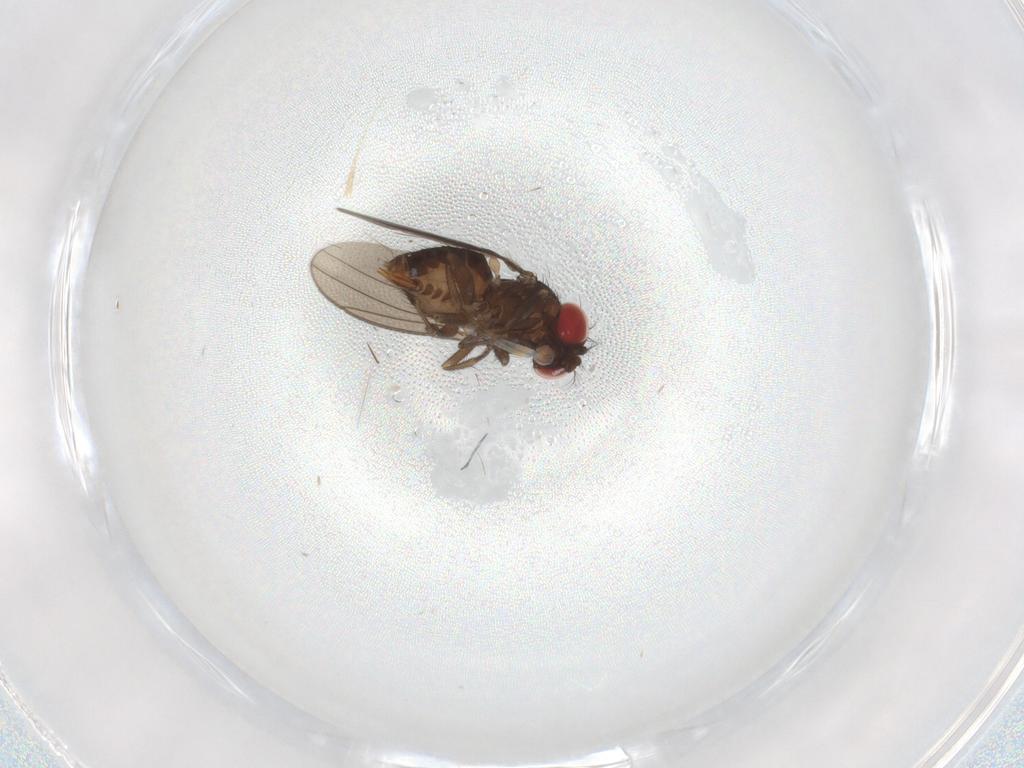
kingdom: Animalia
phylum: Arthropoda
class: Insecta
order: Diptera
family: Drosophilidae
